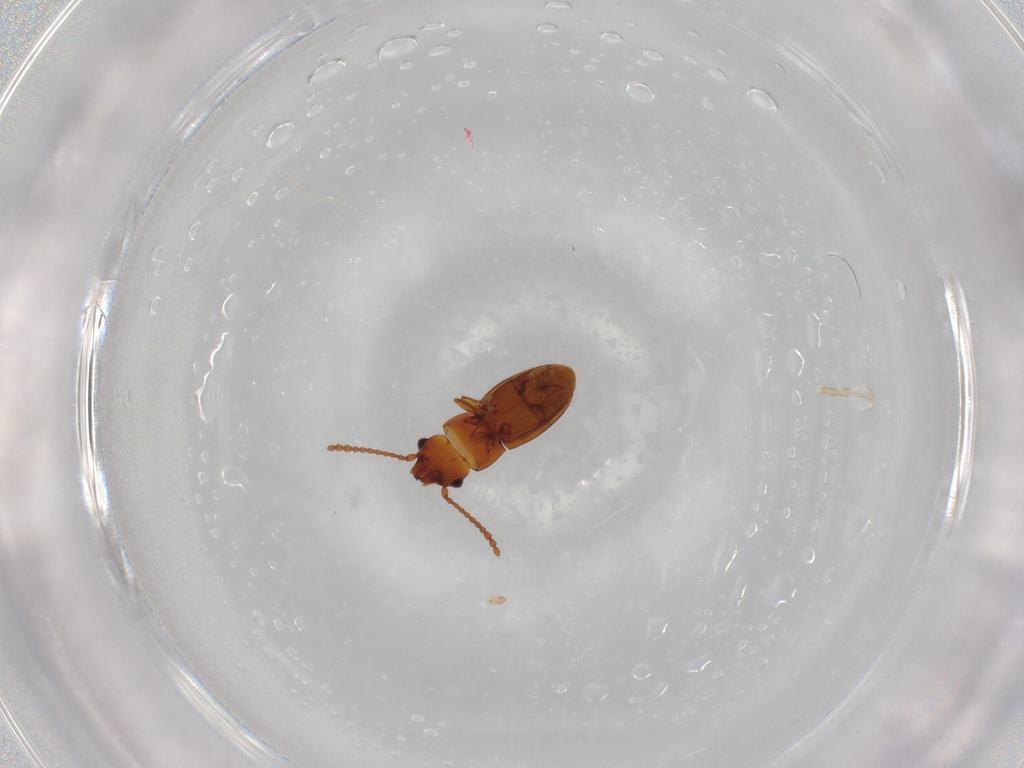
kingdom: Animalia
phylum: Arthropoda
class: Insecta
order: Coleoptera
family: Laemophloeidae
